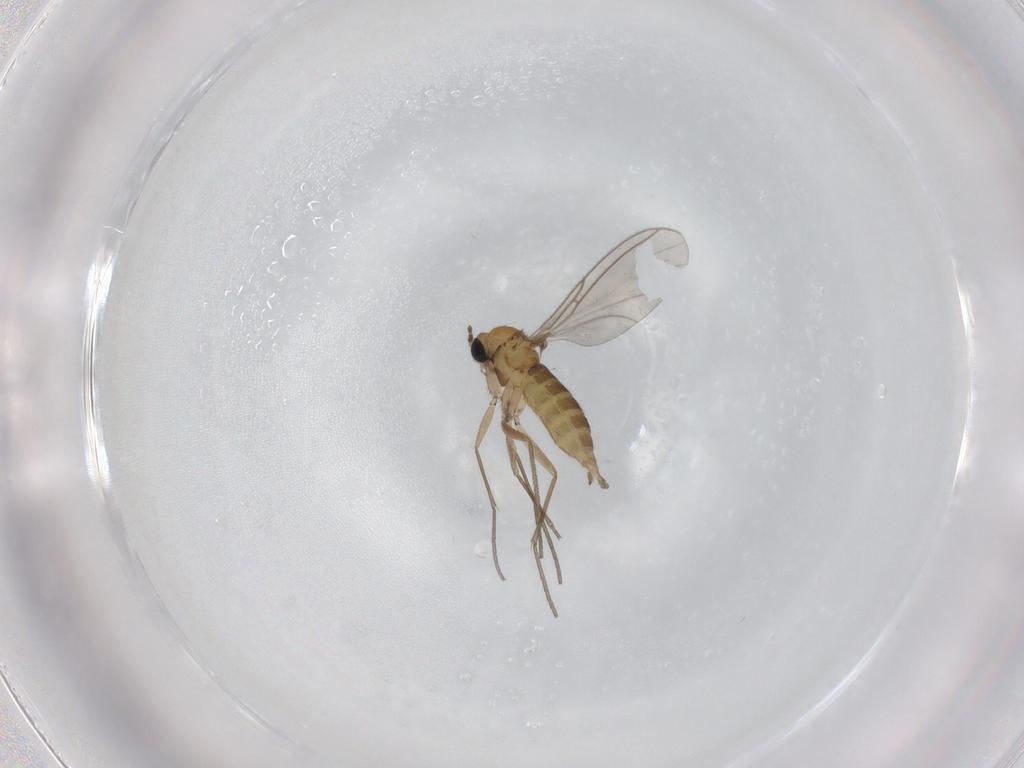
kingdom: Animalia
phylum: Arthropoda
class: Insecta
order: Diptera
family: Sciaridae
